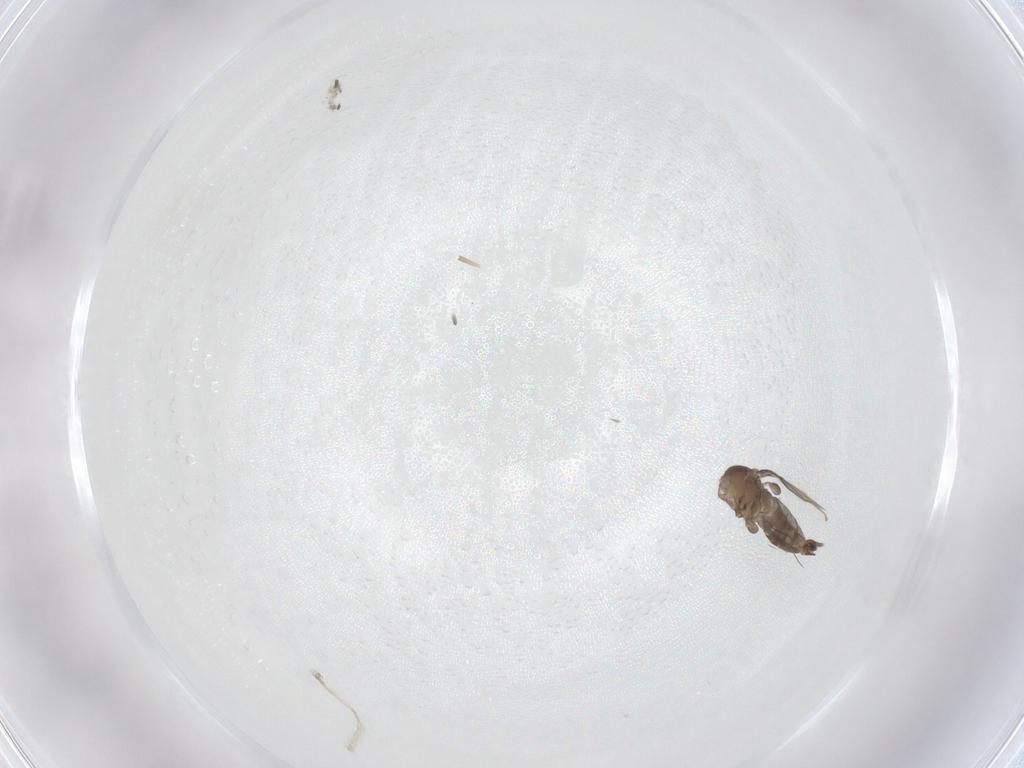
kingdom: Animalia
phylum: Arthropoda
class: Insecta
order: Diptera
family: Phoridae
